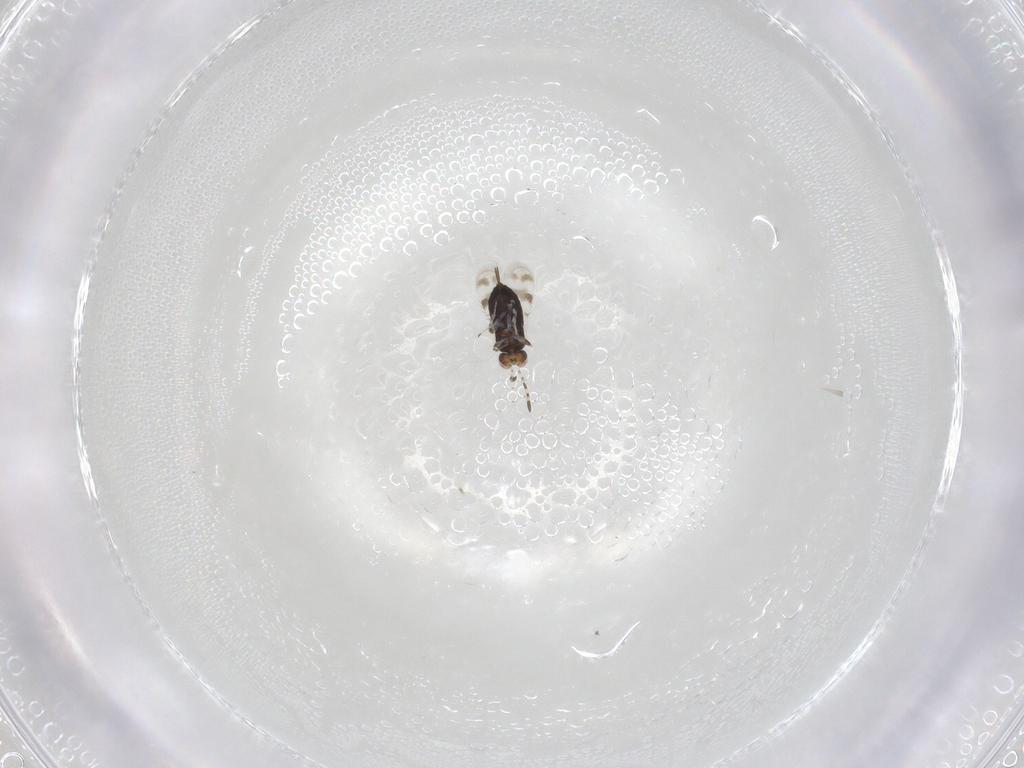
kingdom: Animalia
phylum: Arthropoda
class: Insecta
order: Hymenoptera
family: Azotidae
